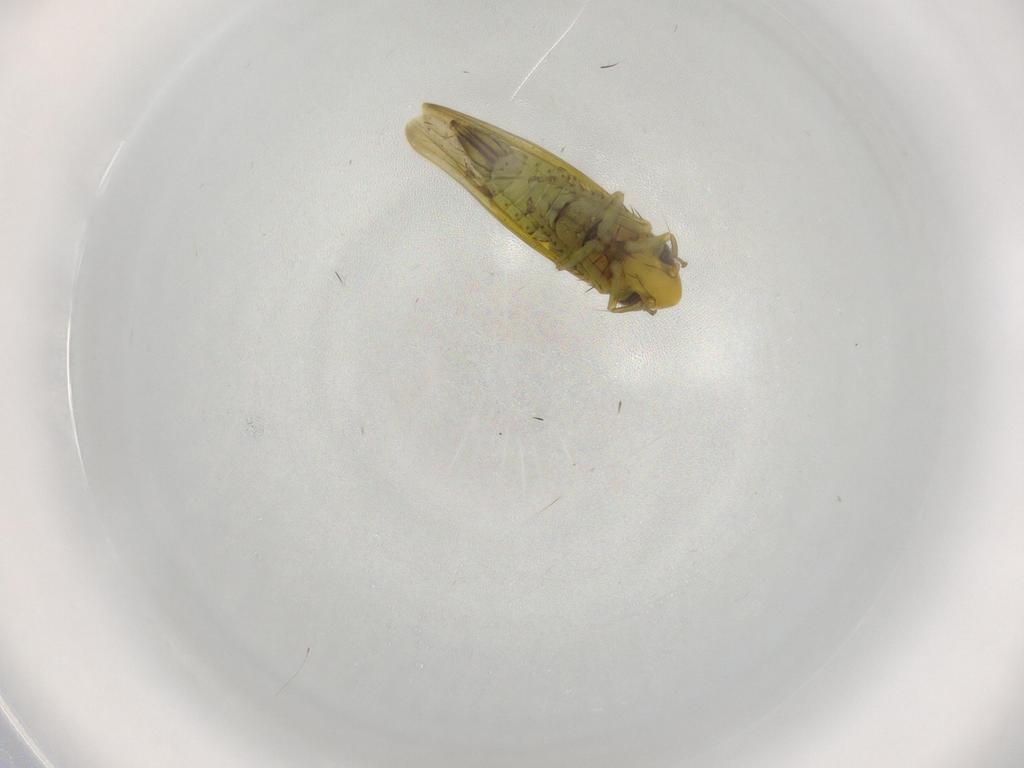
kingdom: Animalia
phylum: Arthropoda
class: Insecta
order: Hemiptera
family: Cicadellidae
